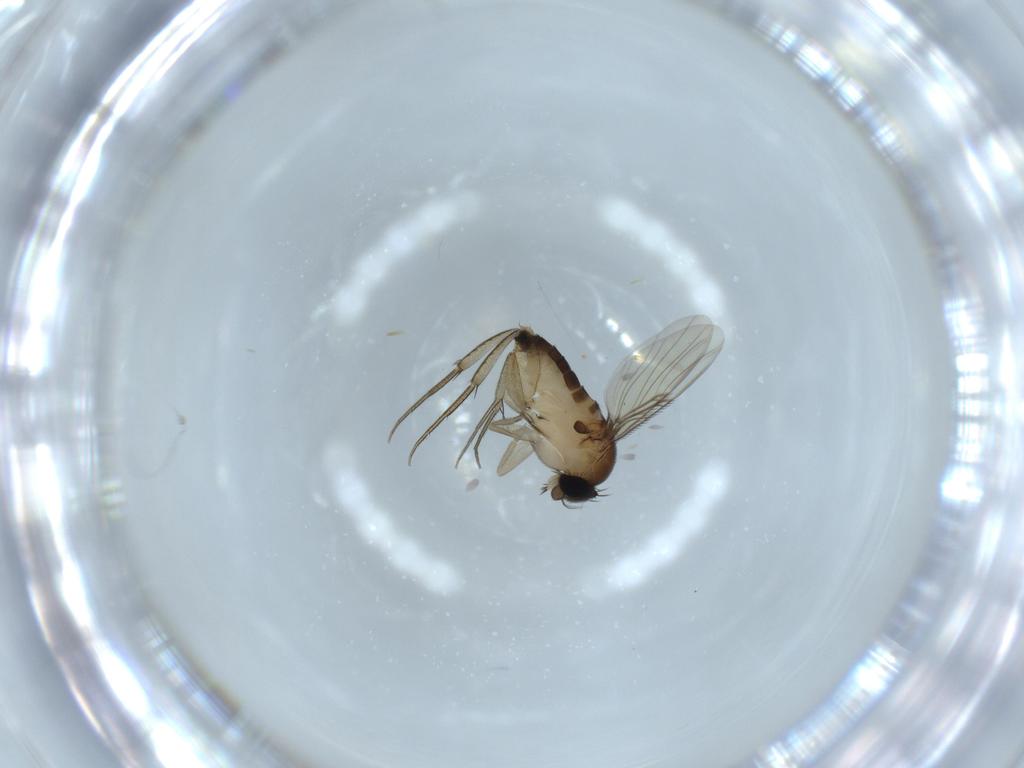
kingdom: Animalia
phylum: Arthropoda
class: Insecta
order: Diptera
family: Phoridae
